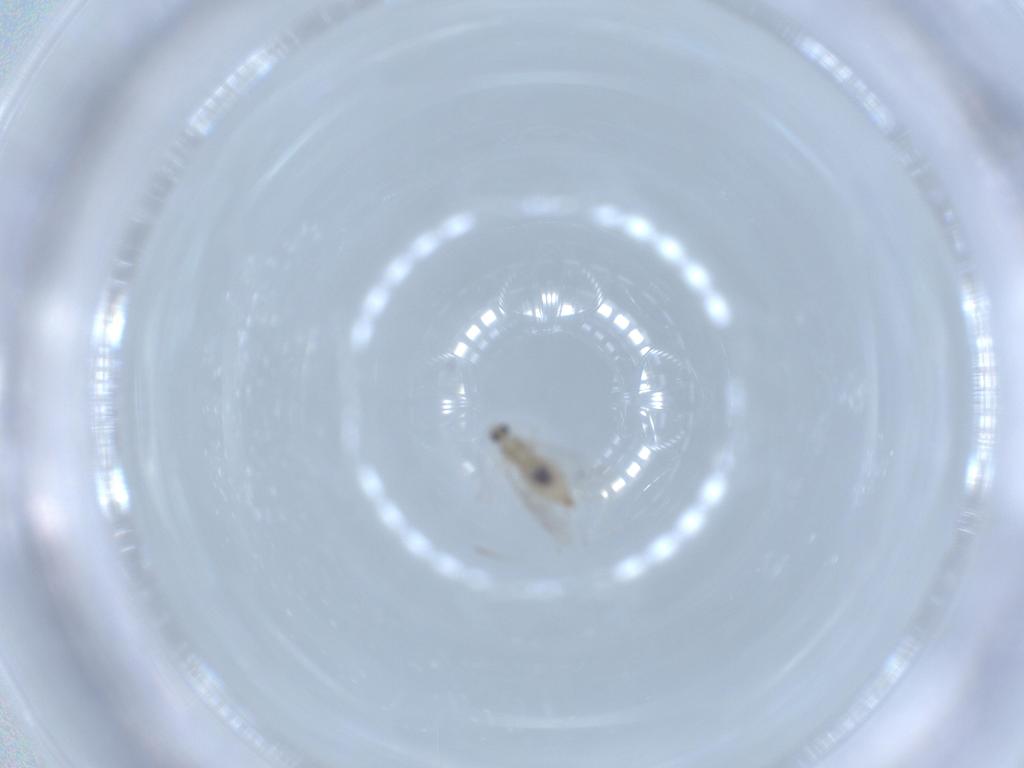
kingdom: Animalia
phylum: Arthropoda
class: Insecta
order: Diptera
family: Cecidomyiidae
